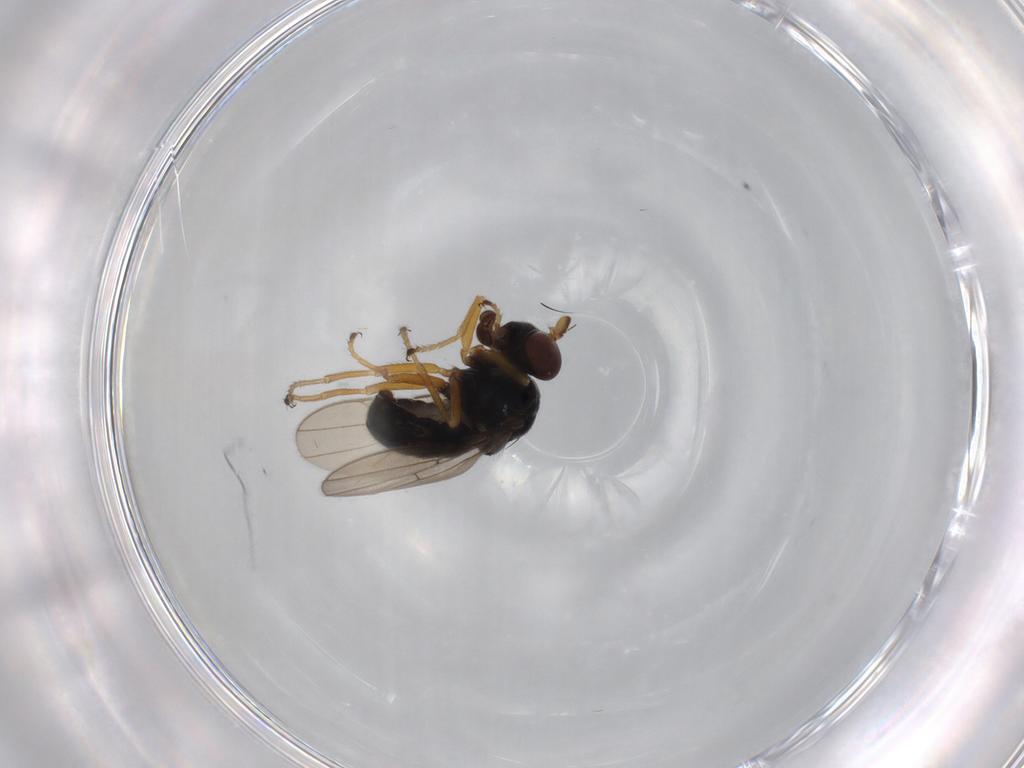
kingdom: Animalia
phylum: Arthropoda
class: Insecta
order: Diptera
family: Ephydridae
